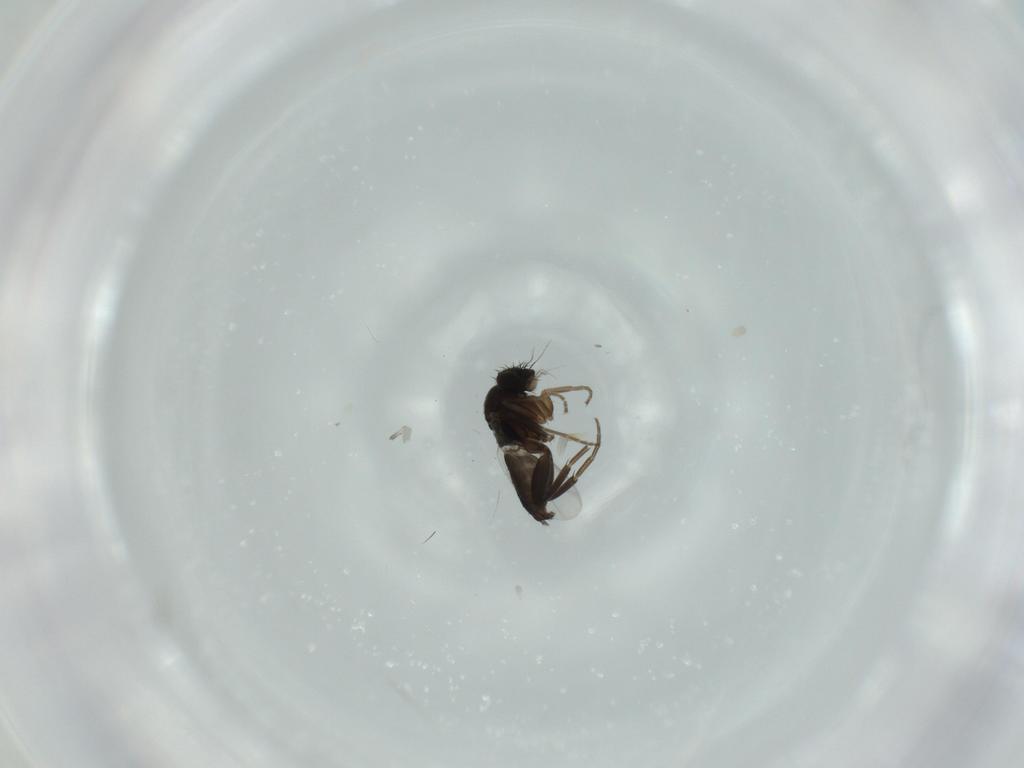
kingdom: Animalia
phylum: Arthropoda
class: Insecta
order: Diptera
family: Phoridae
